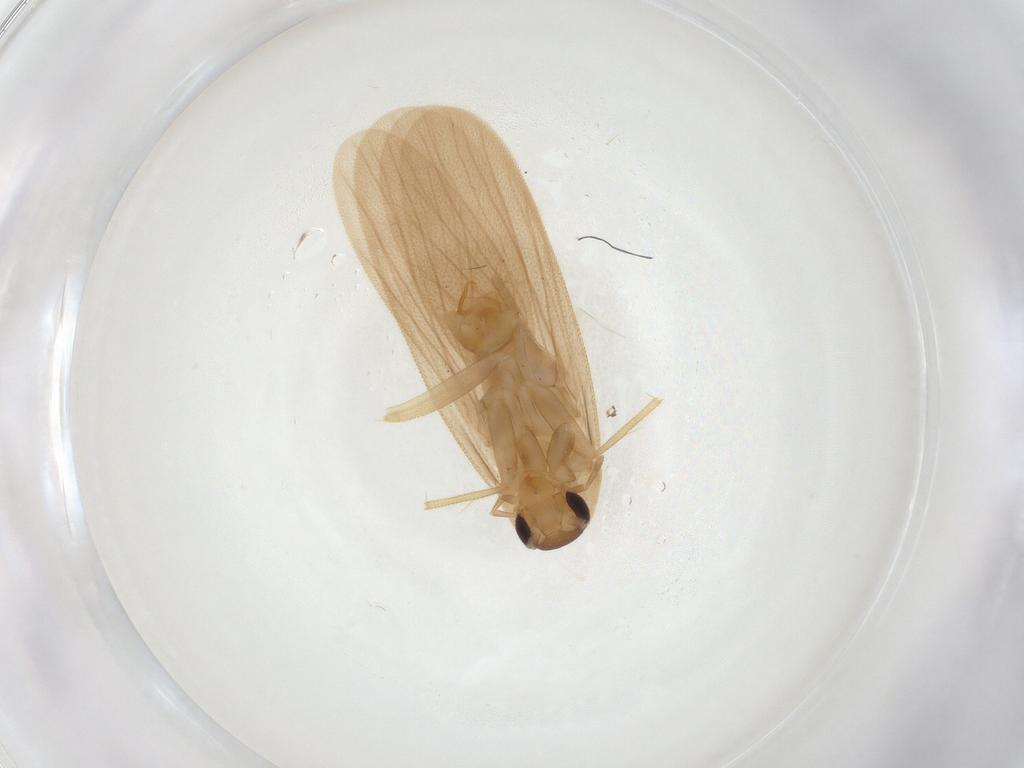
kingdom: Animalia
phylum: Arthropoda
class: Insecta
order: Blattodea
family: Nocticolidae
